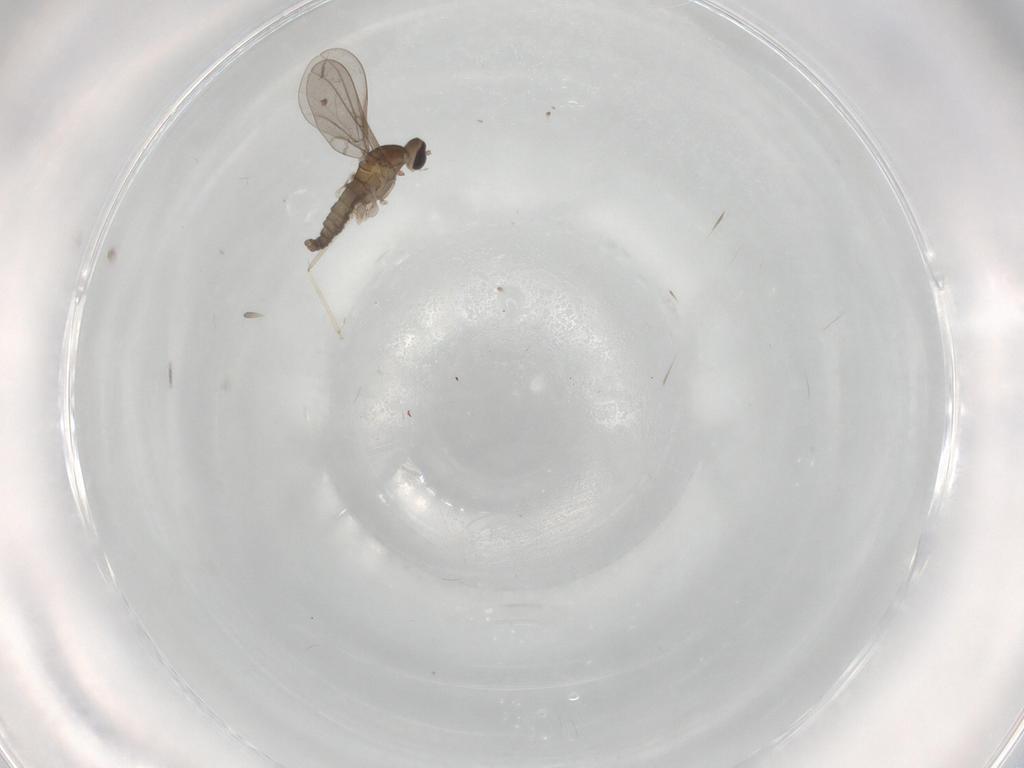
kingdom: Animalia
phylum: Arthropoda
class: Insecta
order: Diptera
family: Cecidomyiidae
